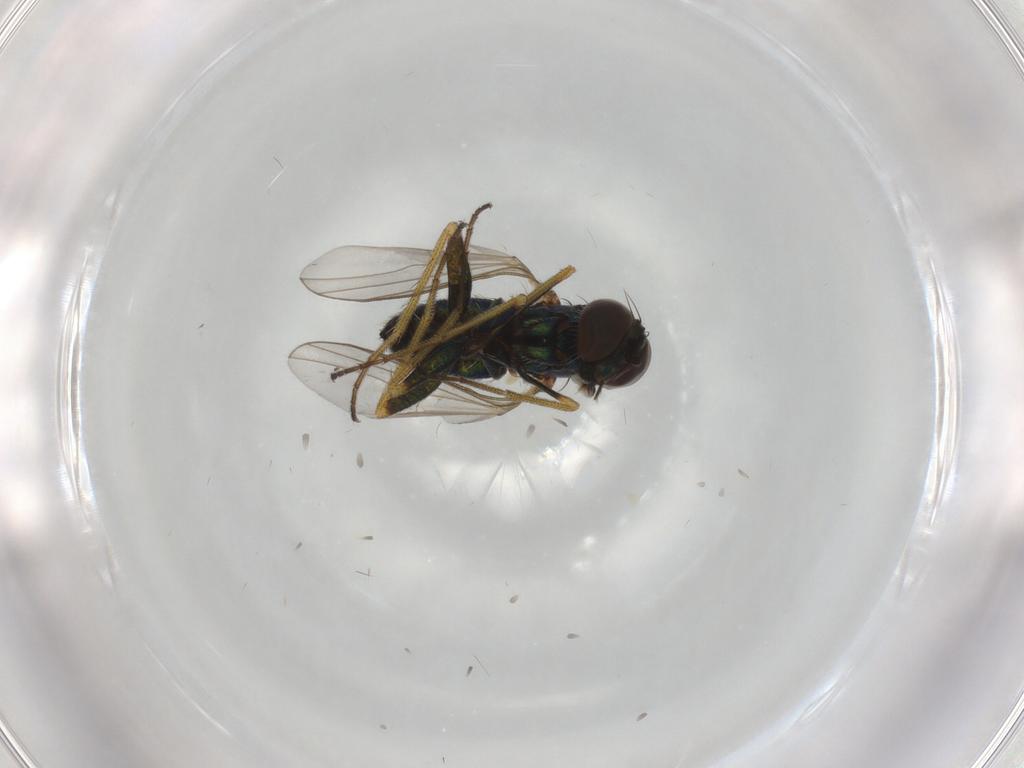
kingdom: Animalia
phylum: Arthropoda
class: Insecta
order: Diptera
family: Dolichopodidae
